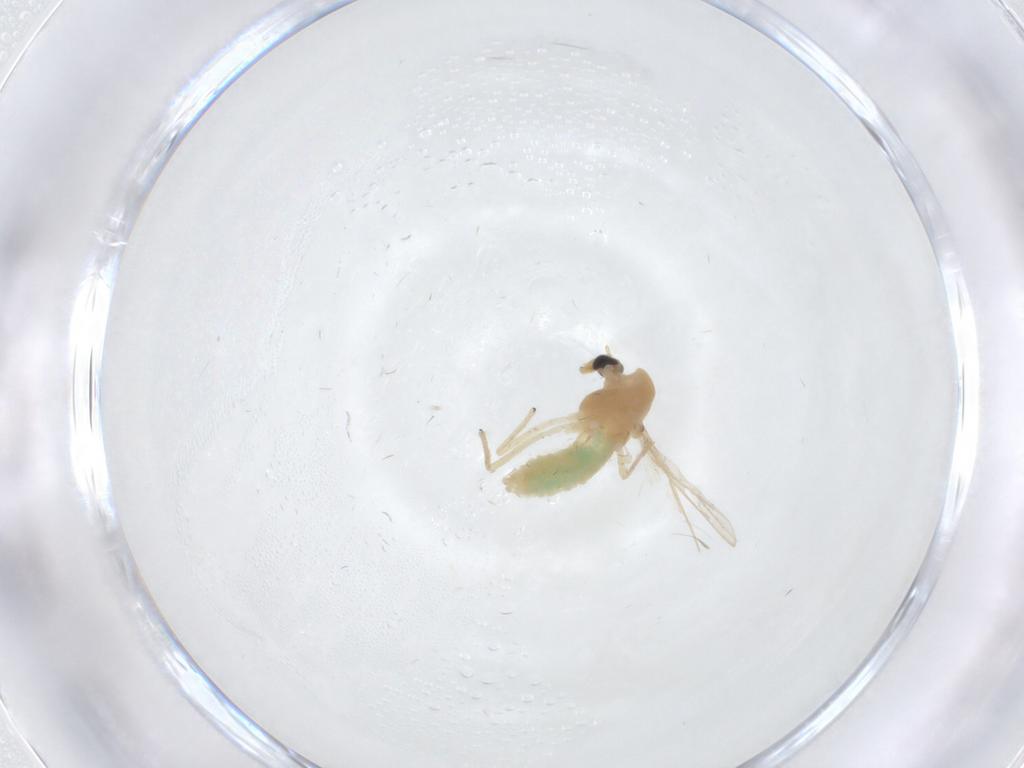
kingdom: Animalia
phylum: Arthropoda
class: Insecta
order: Diptera
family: Chironomidae
